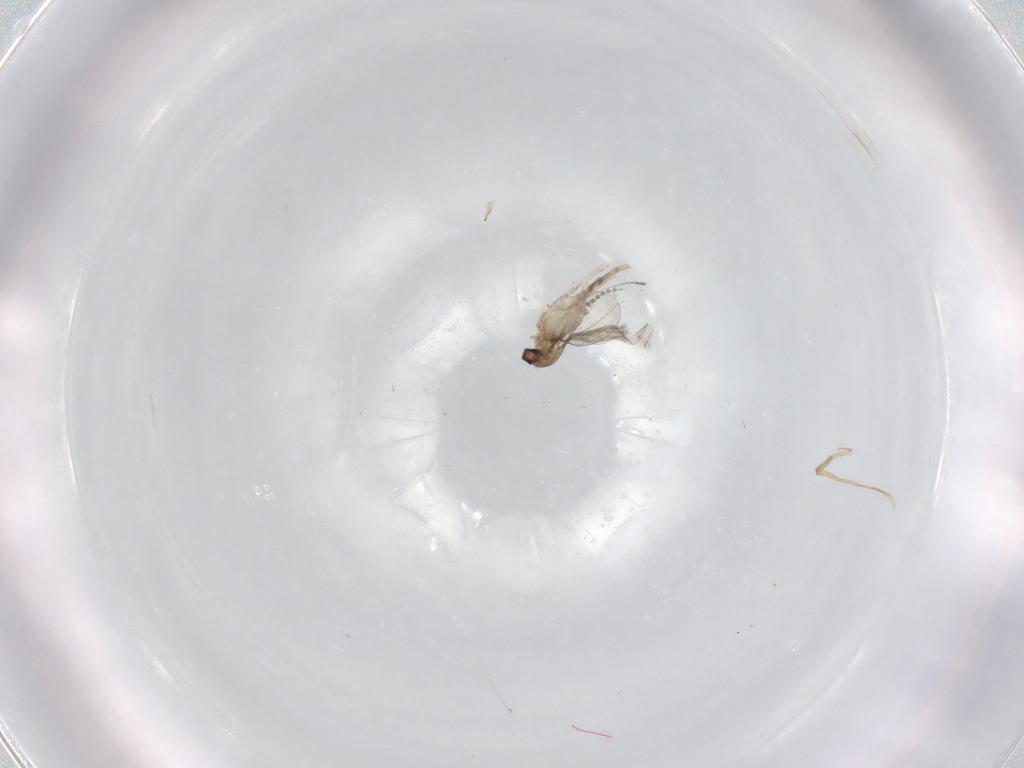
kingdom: Animalia
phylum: Arthropoda
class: Insecta
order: Diptera
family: Cecidomyiidae
